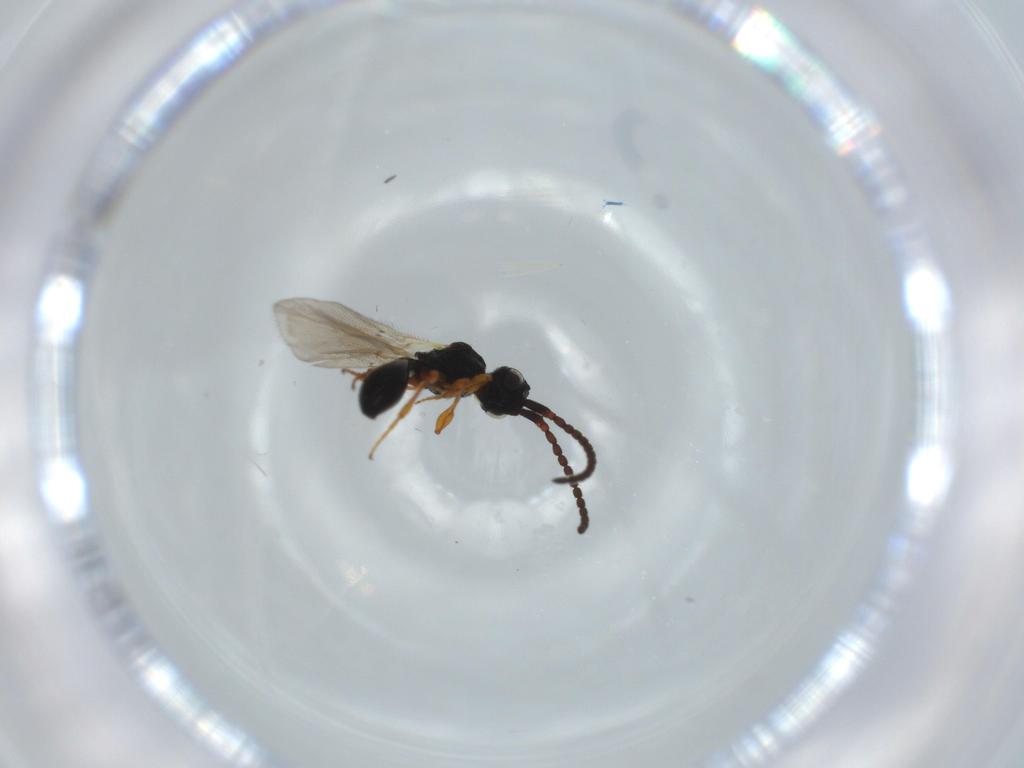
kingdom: Animalia
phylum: Arthropoda
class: Insecta
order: Hymenoptera
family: Diapriidae
